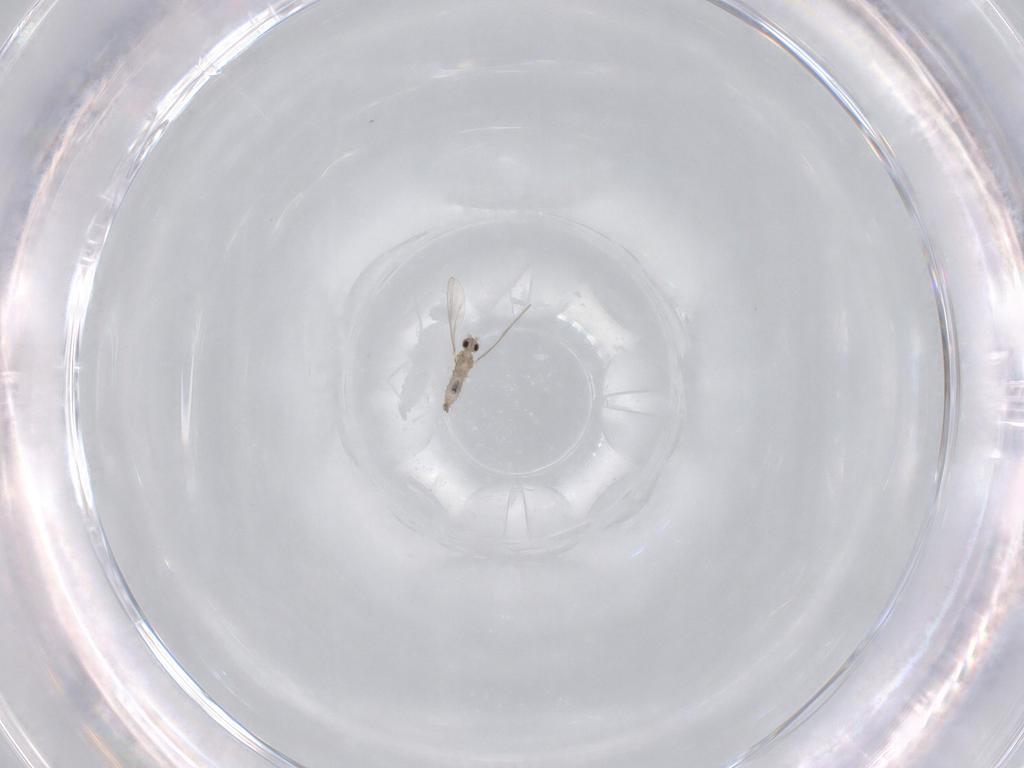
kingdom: Animalia
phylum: Arthropoda
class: Insecta
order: Diptera
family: Cecidomyiidae
